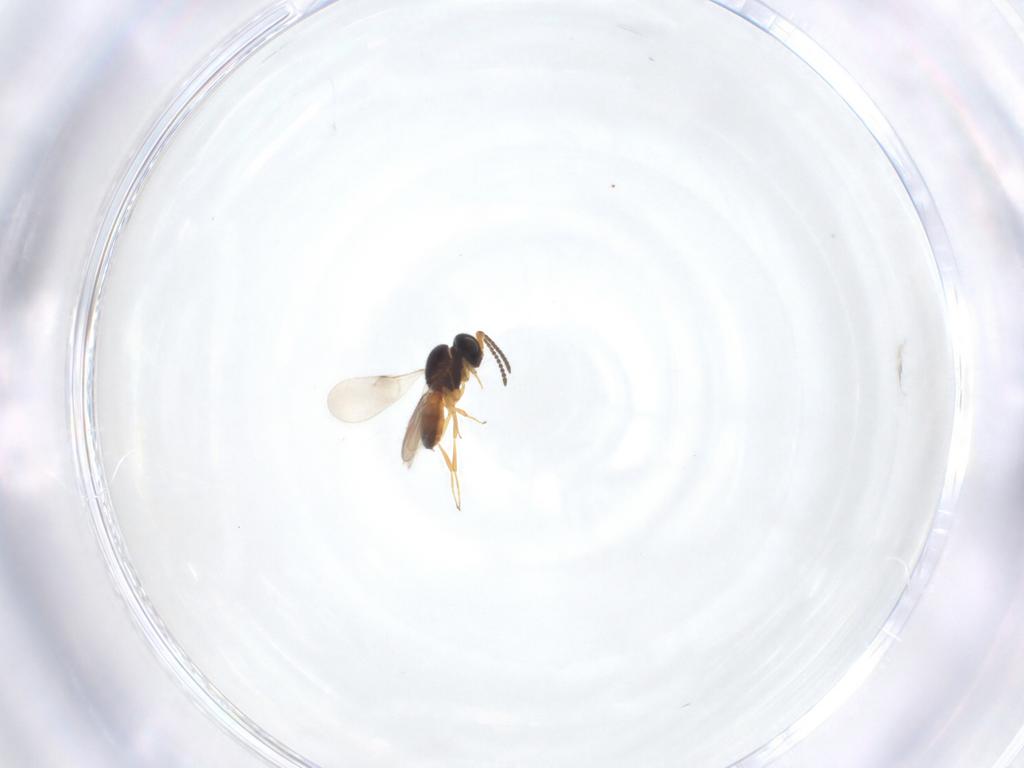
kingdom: Animalia
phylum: Arthropoda
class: Insecta
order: Hymenoptera
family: Scelionidae
